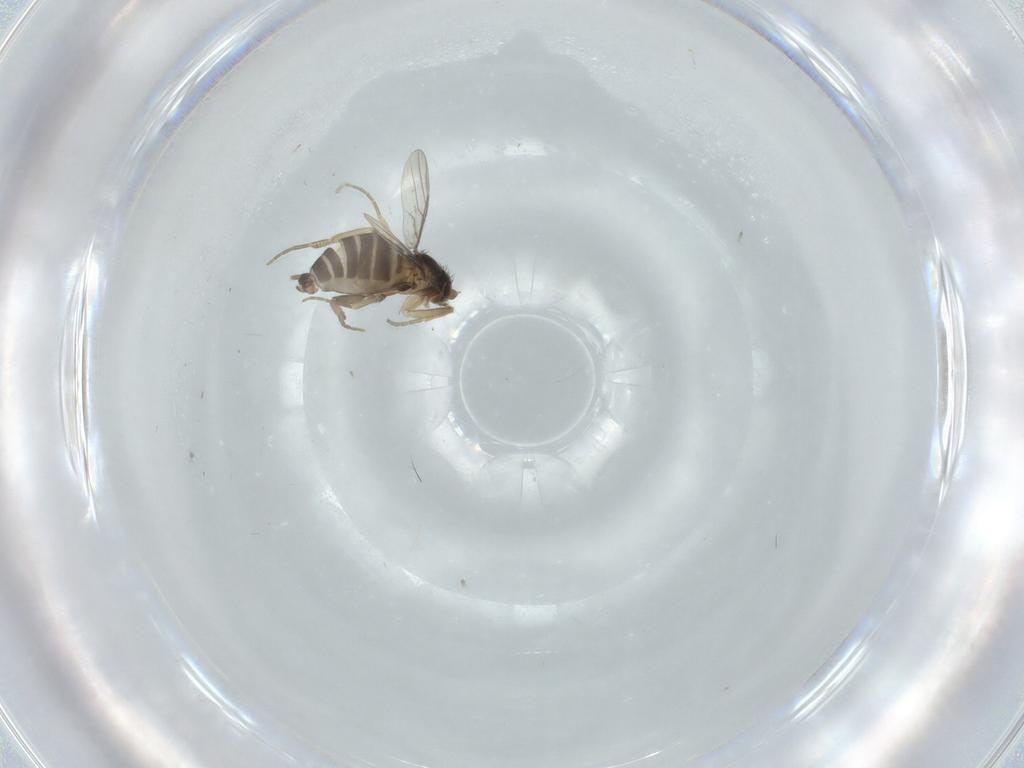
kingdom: Animalia
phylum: Arthropoda
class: Insecta
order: Diptera
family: Phoridae
